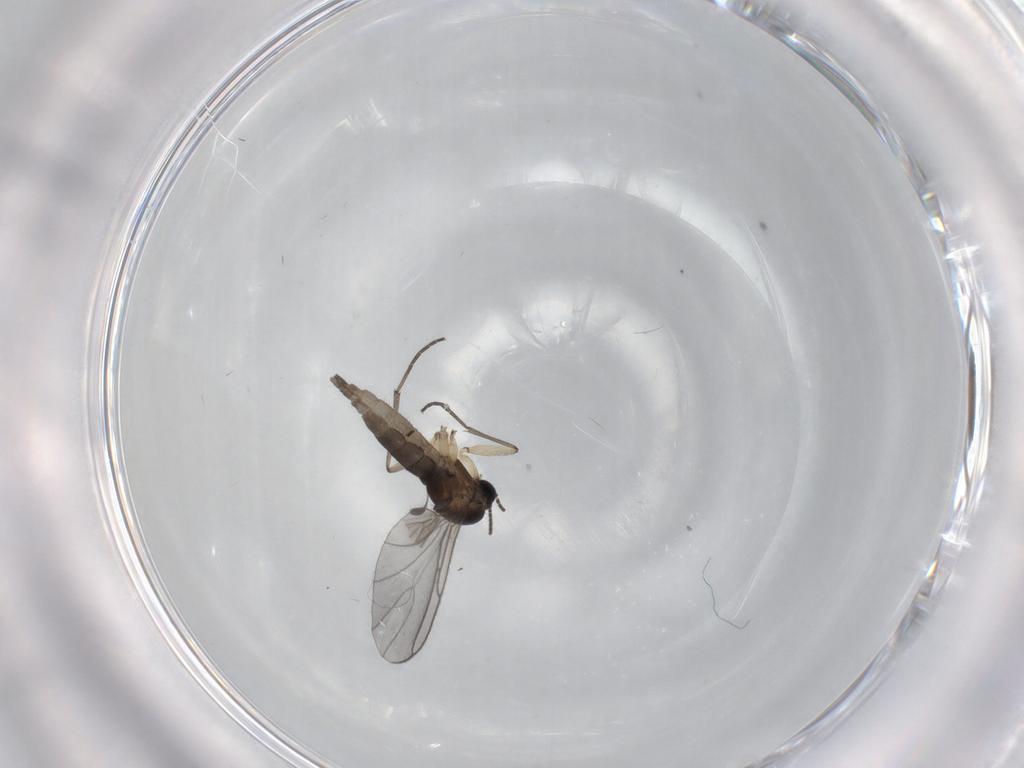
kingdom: Animalia
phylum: Arthropoda
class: Insecta
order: Diptera
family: Sciaridae
